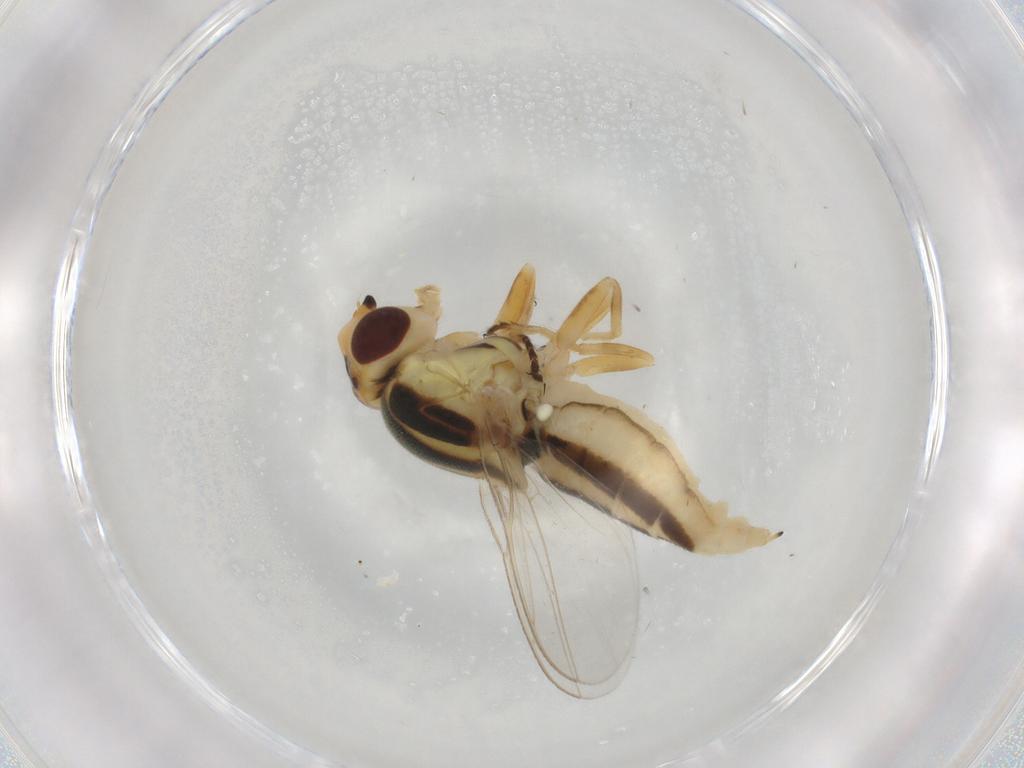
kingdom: Animalia
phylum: Arthropoda
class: Insecta
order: Diptera
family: Chloropidae
